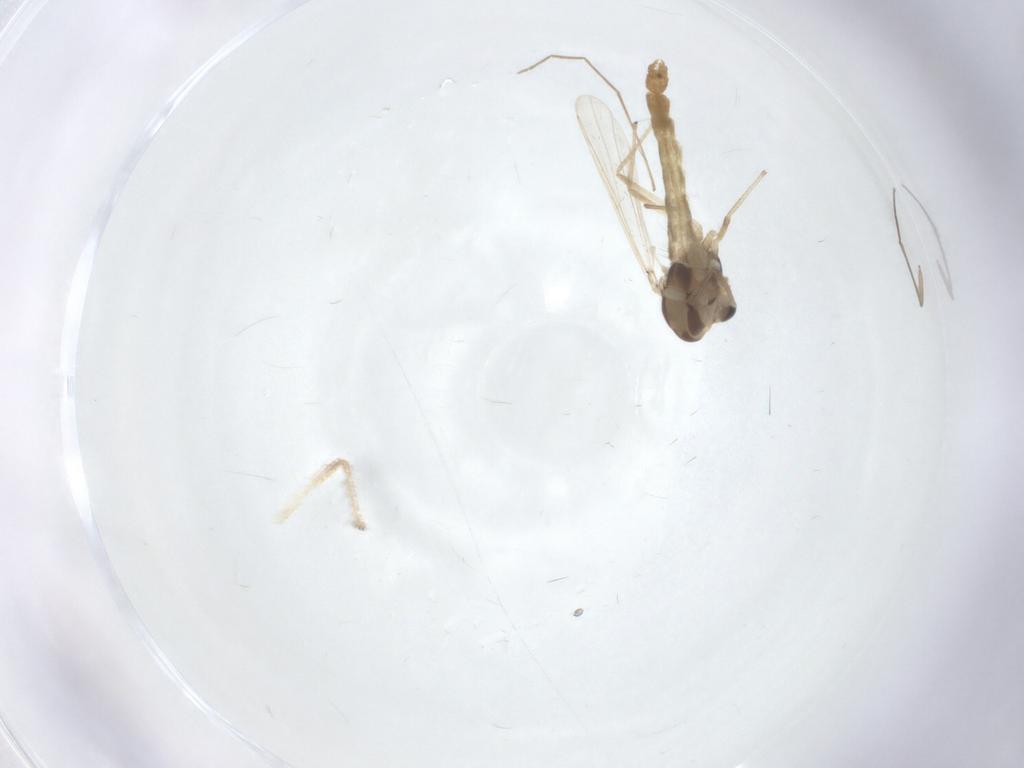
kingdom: Animalia
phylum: Arthropoda
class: Insecta
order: Diptera
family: Chironomidae
